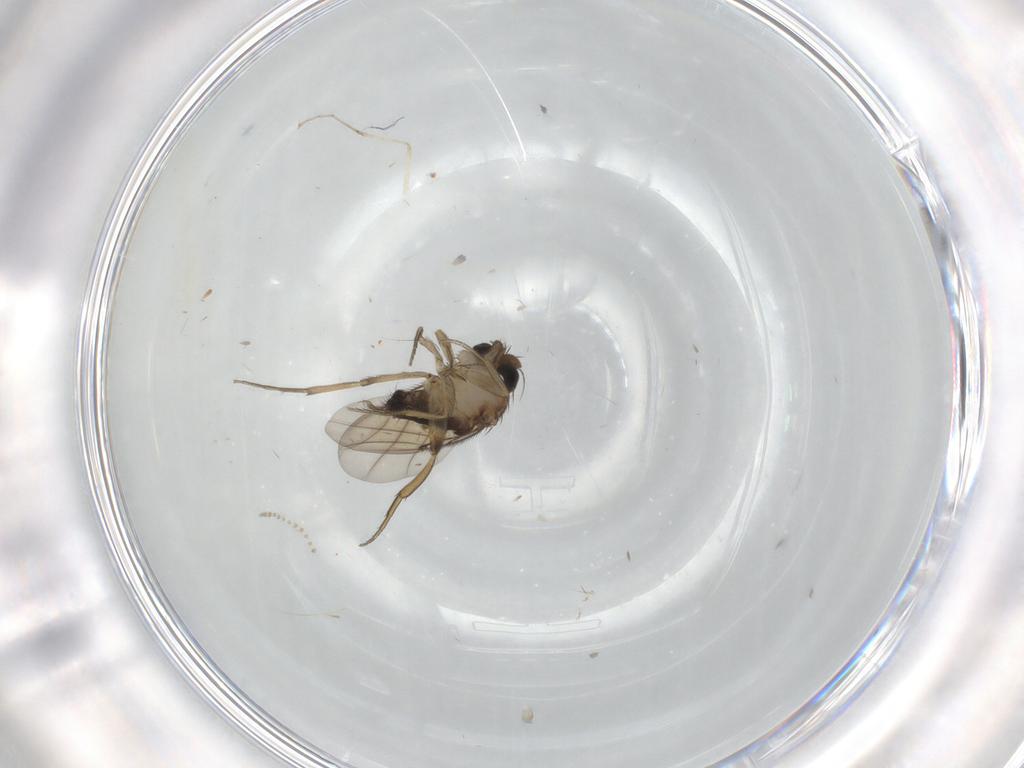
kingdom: Animalia
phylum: Arthropoda
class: Insecta
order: Diptera
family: Cecidomyiidae
